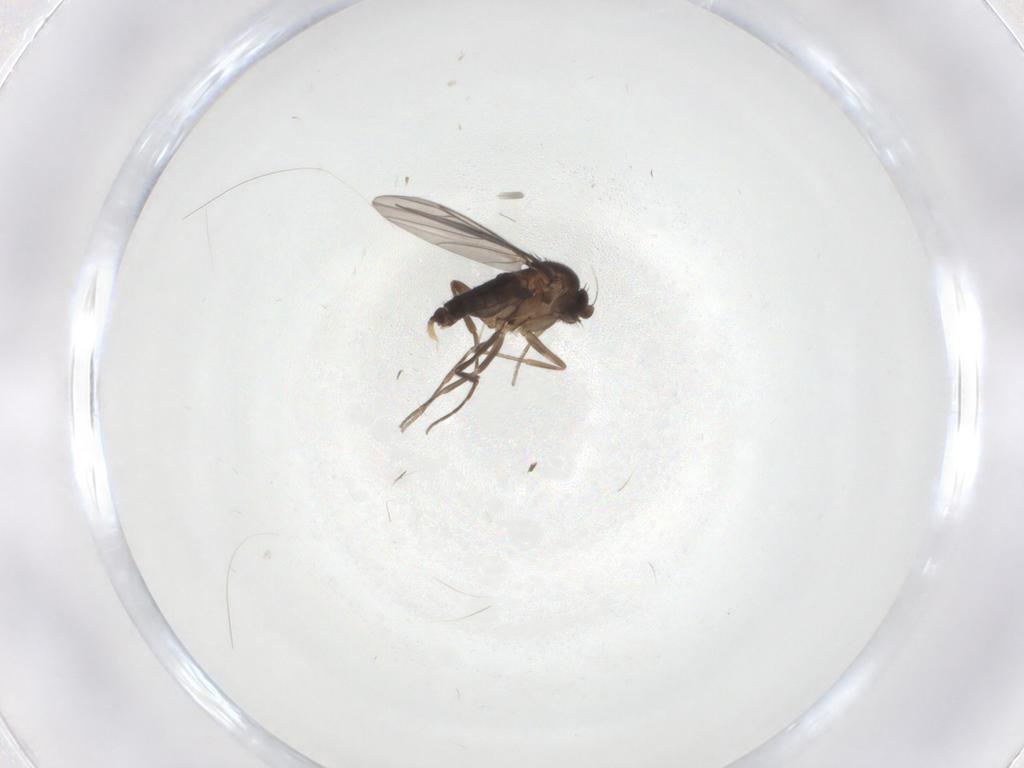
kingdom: Animalia
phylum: Arthropoda
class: Insecta
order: Diptera
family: Phoridae
